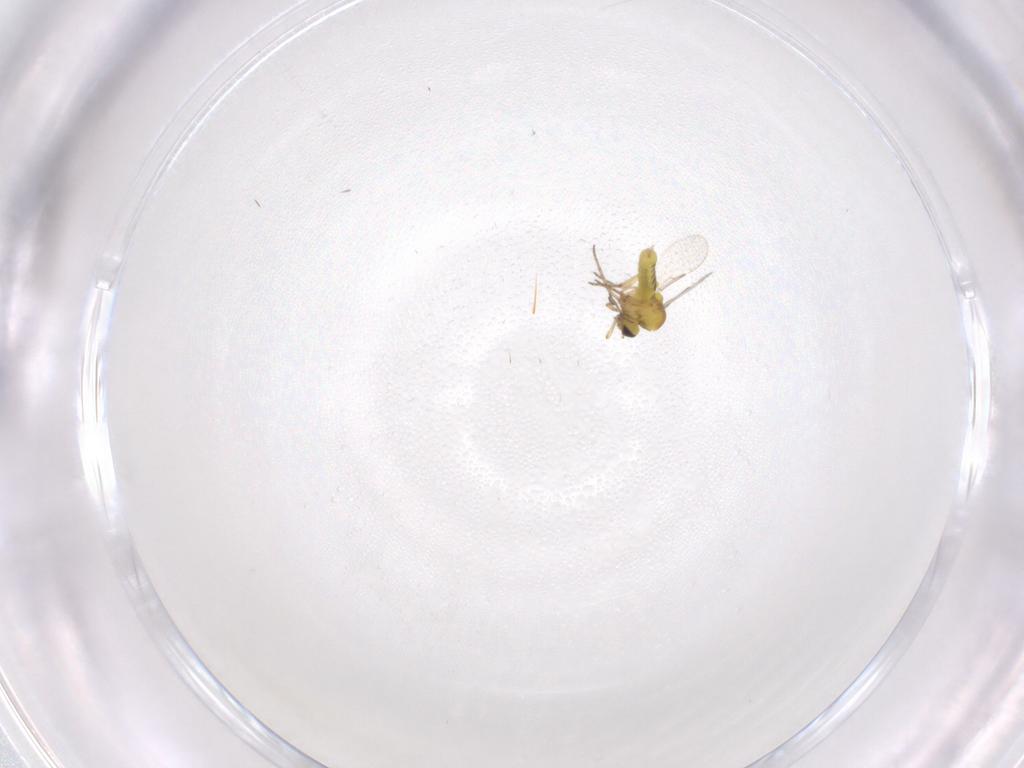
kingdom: Animalia
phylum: Arthropoda
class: Insecta
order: Diptera
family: Ceratopogonidae
